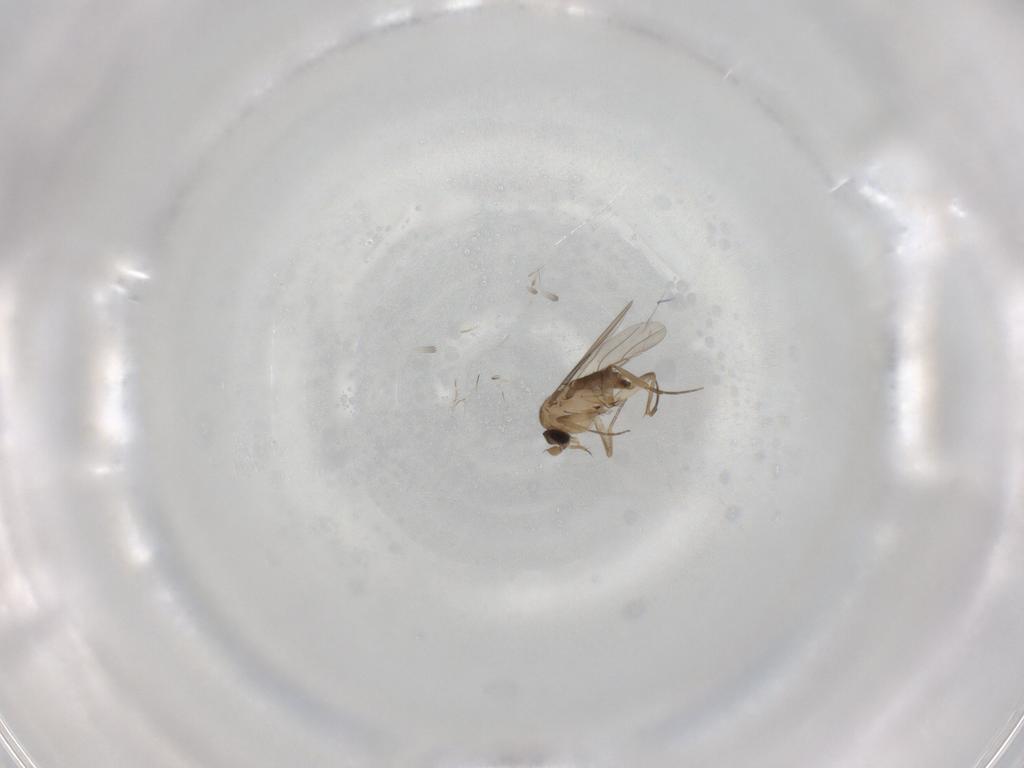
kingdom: Animalia
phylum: Arthropoda
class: Insecta
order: Diptera
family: Phoridae
